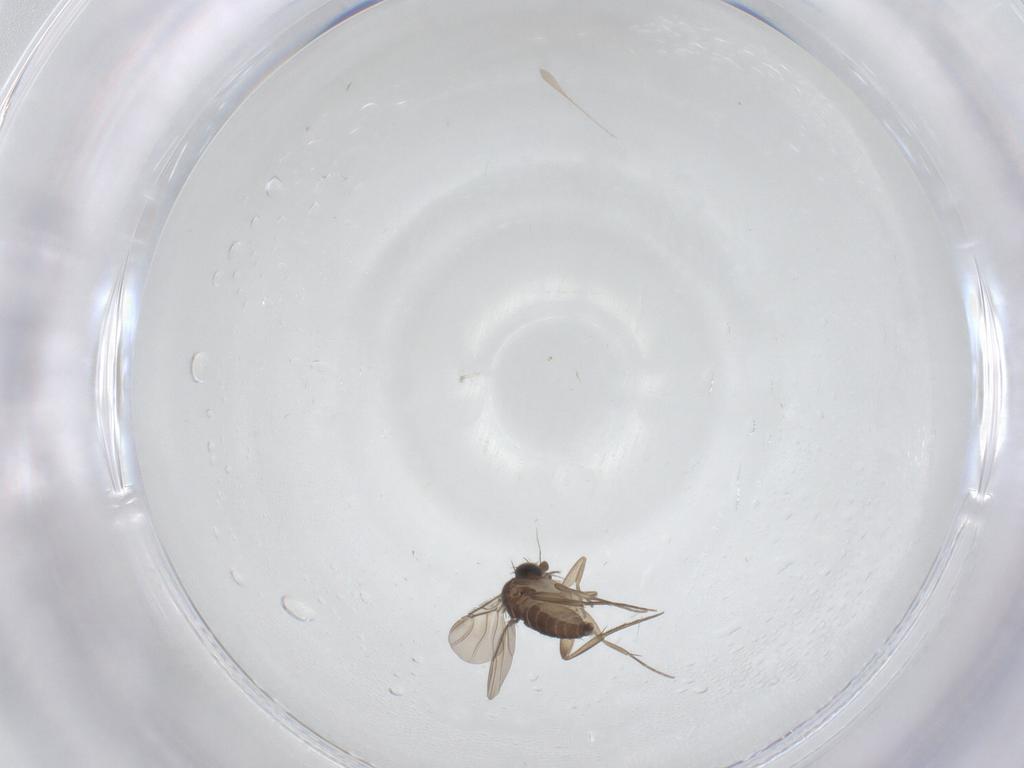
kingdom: Animalia
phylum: Arthropoda
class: Insecta
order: Diptera
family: Phoridae
